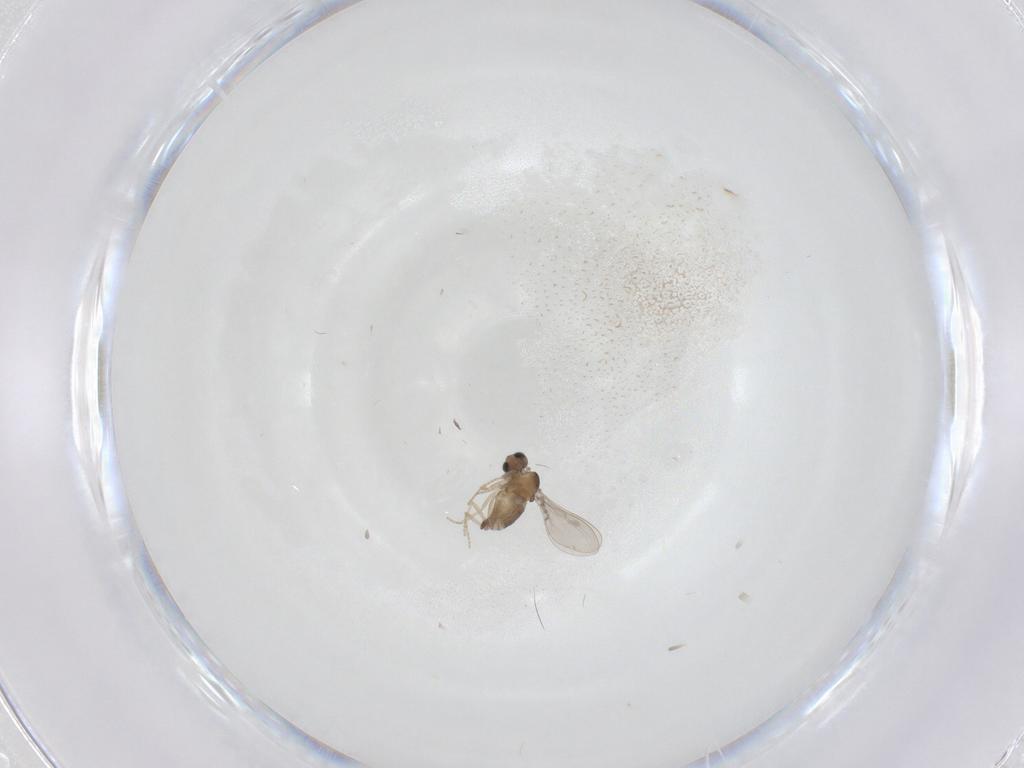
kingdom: Animalia
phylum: Arthropoda
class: Insecta
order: Diptera
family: Cecidomyiidae
